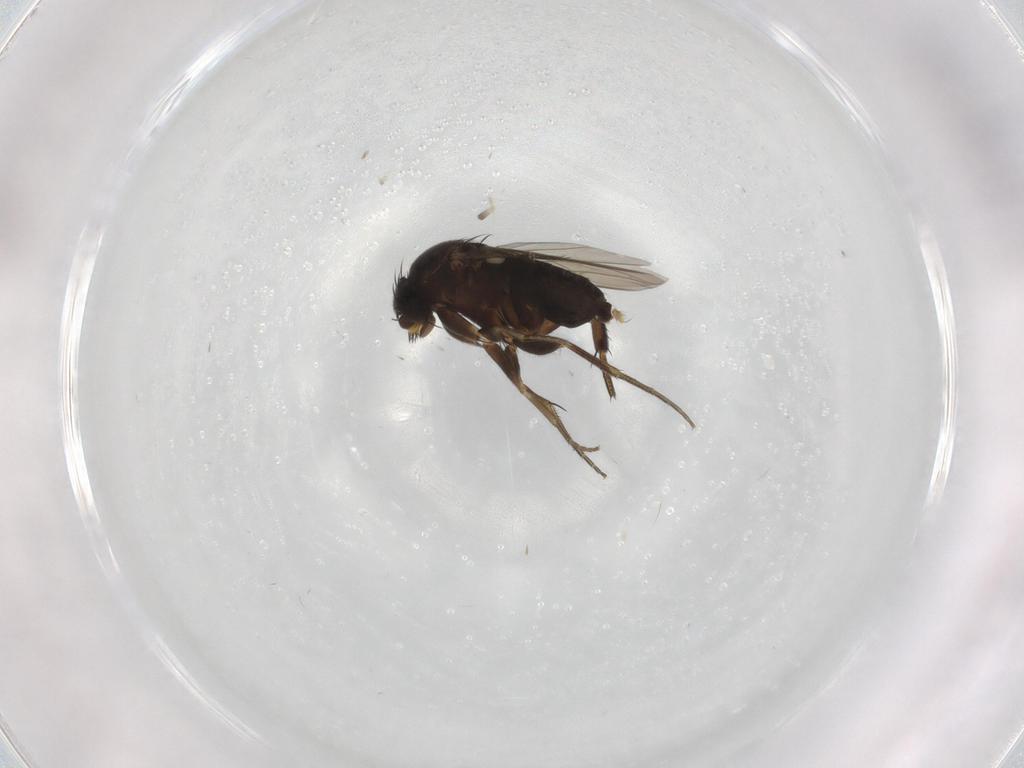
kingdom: Animalia
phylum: Arthropoda
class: Insecta
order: Diptera
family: Phoridae
